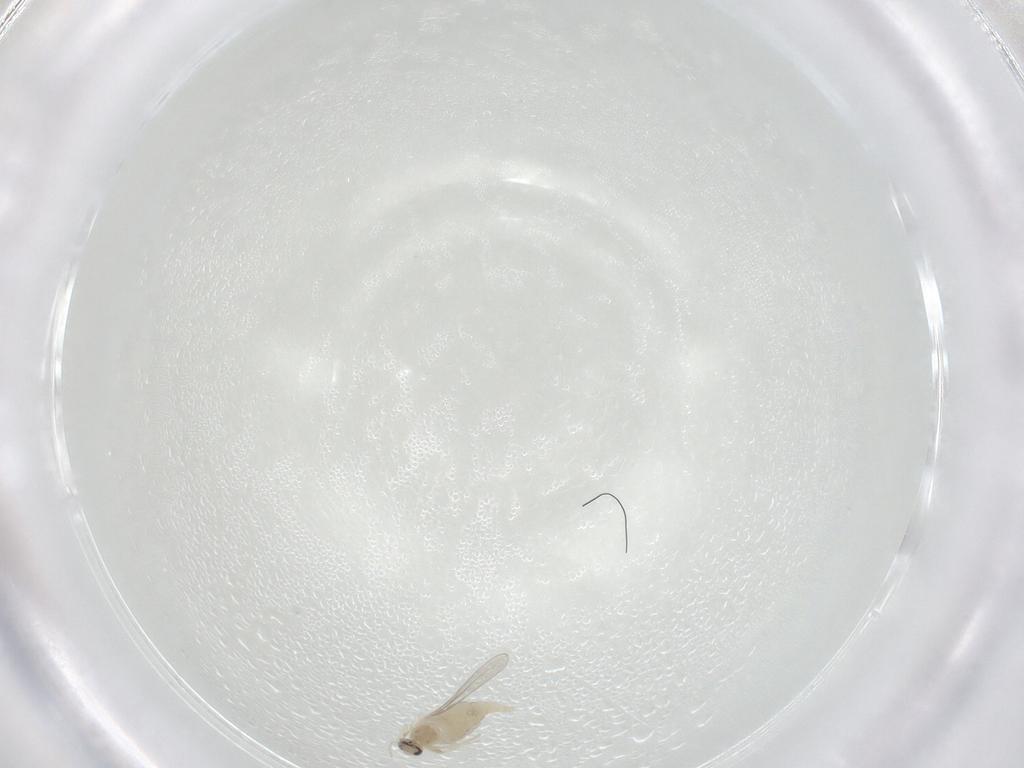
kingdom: Animalia
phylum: Arthropoda
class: Insecta
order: Diptera
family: Cecidomyiidae
